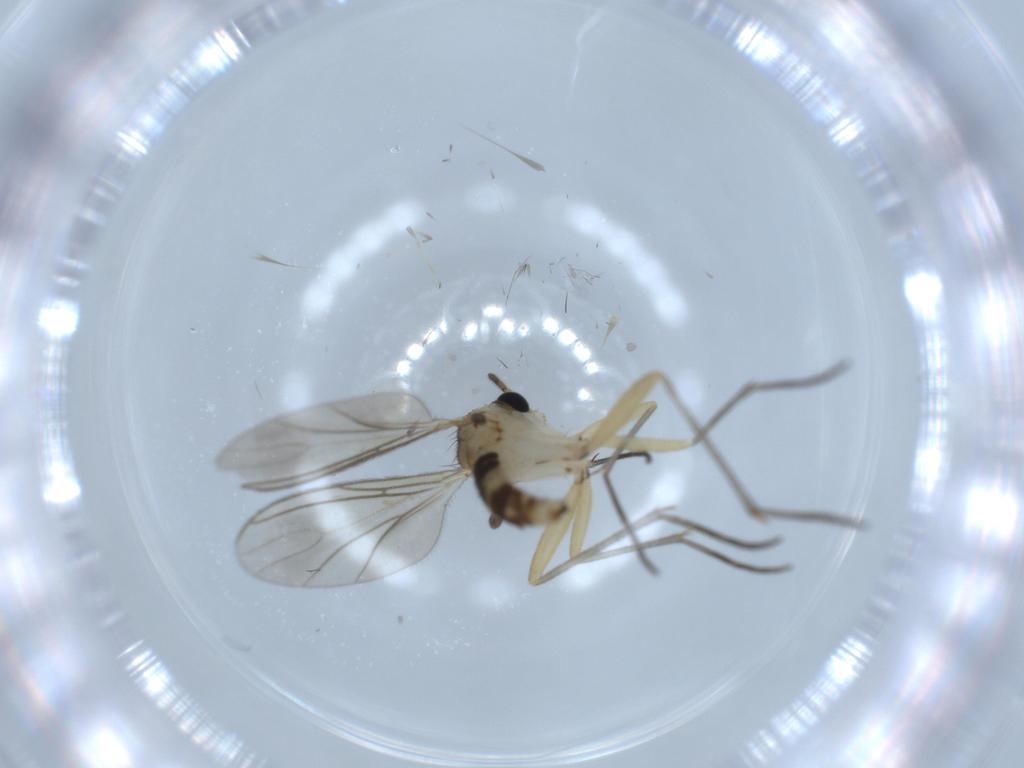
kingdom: Animalia
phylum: Arthropoda
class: Insecta
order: Diptera
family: Sciaridae
